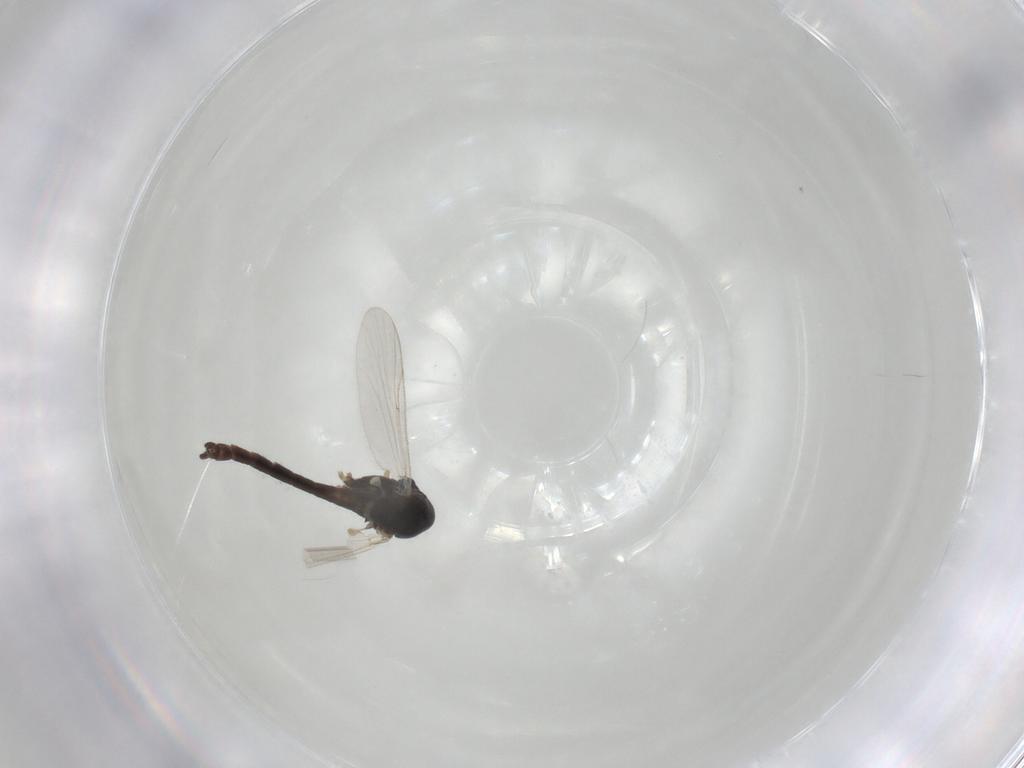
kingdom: Animalia
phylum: Arthropoda
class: Insecta
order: Diptera
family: Chironomidae
